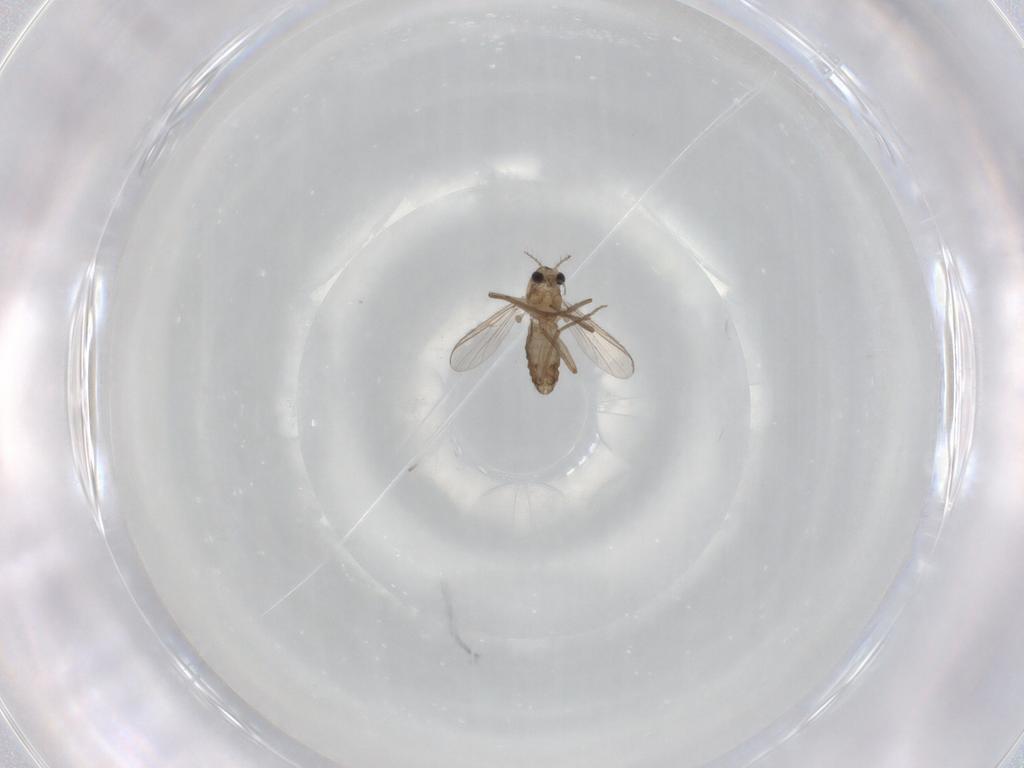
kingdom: Animalia
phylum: Arthropoda
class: Insecta
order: Diptera
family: Chironomidae
